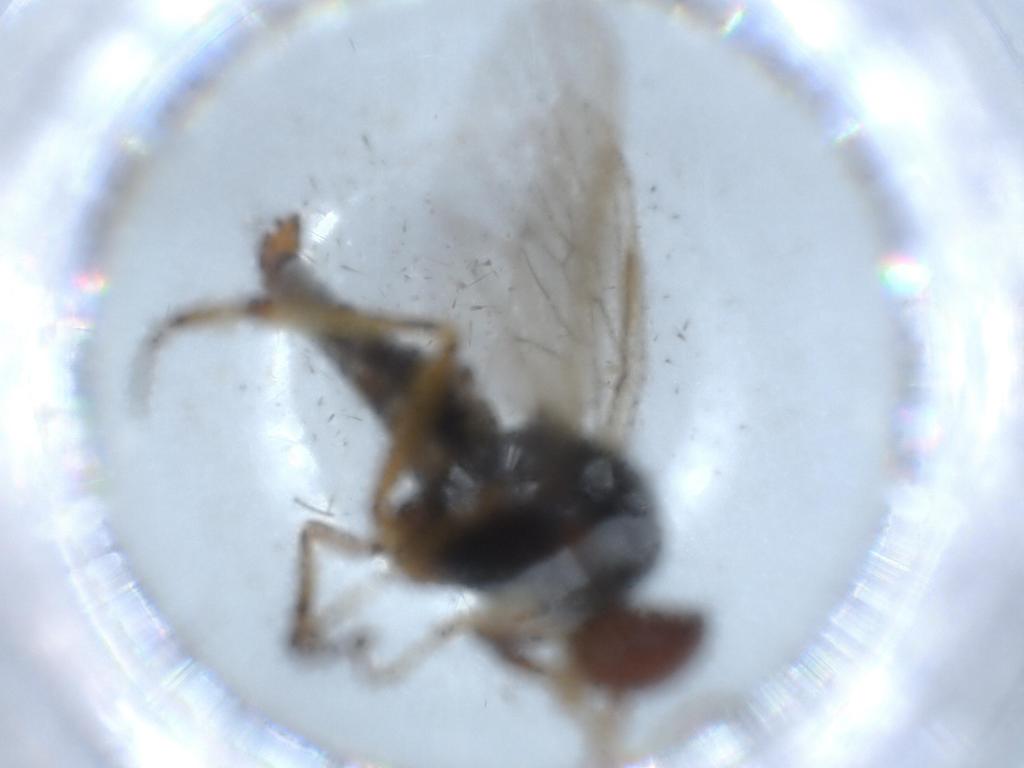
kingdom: Animalia
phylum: Arthropoda
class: Insecta
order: Diptera
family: Therevidae
